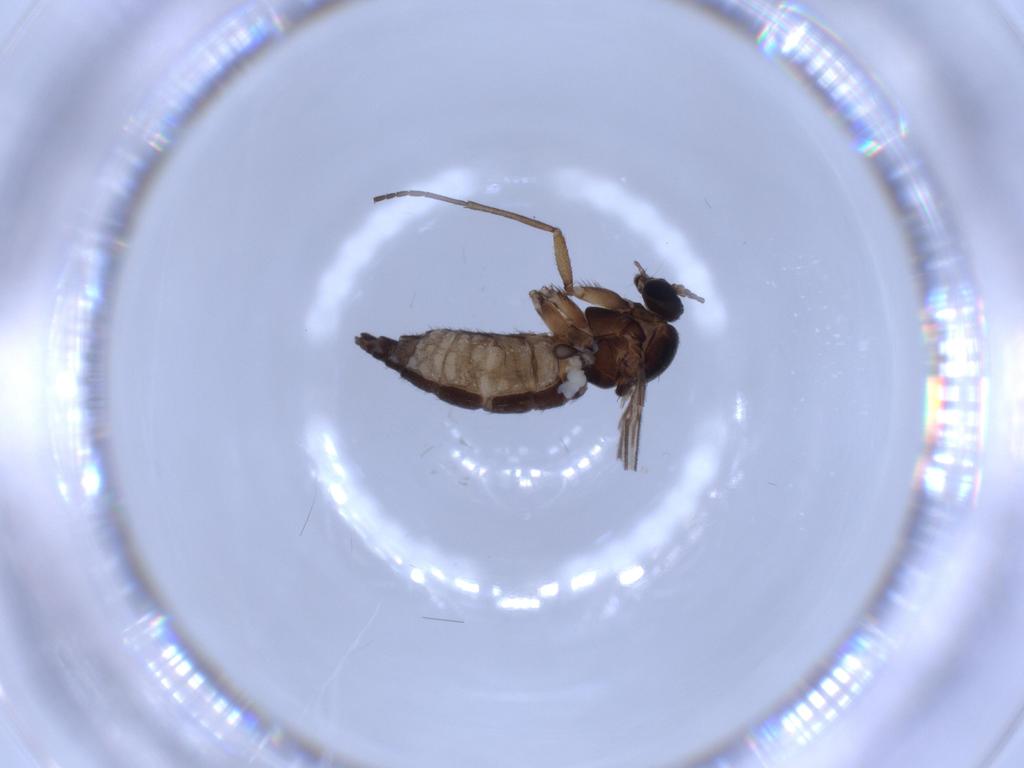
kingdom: Animalia
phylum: Arthropoda
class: Insecta
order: Diptera
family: Sciaridae
